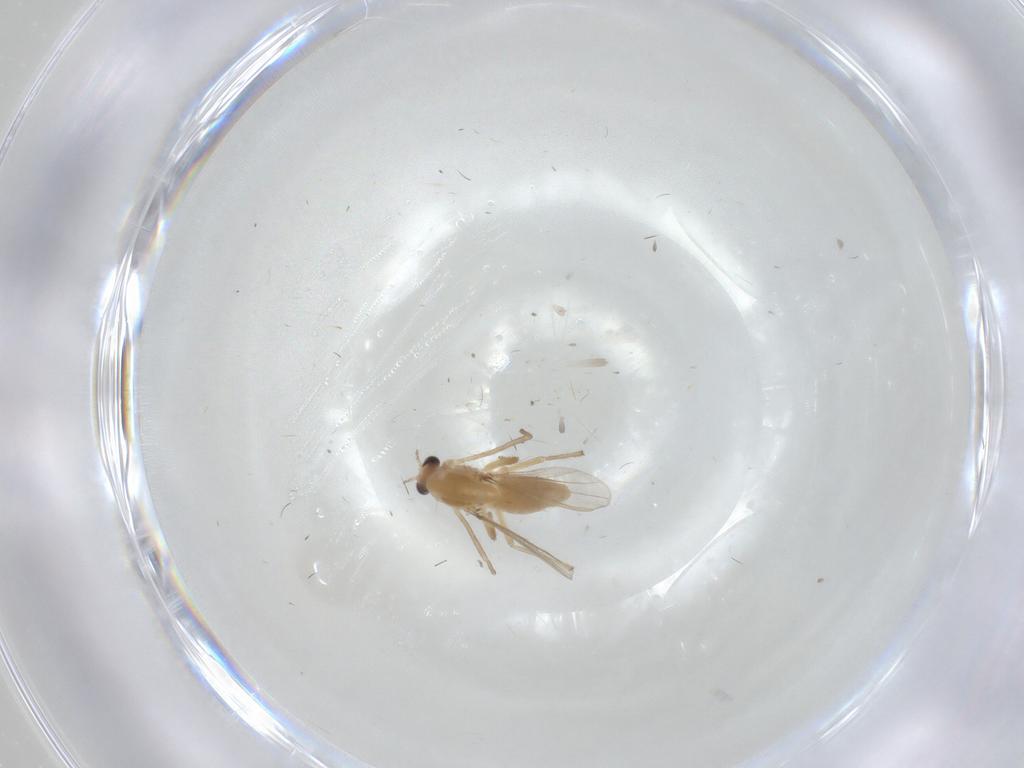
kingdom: Animalia
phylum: Arthropoda
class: Insecta
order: Diptera
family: Chironomidae
